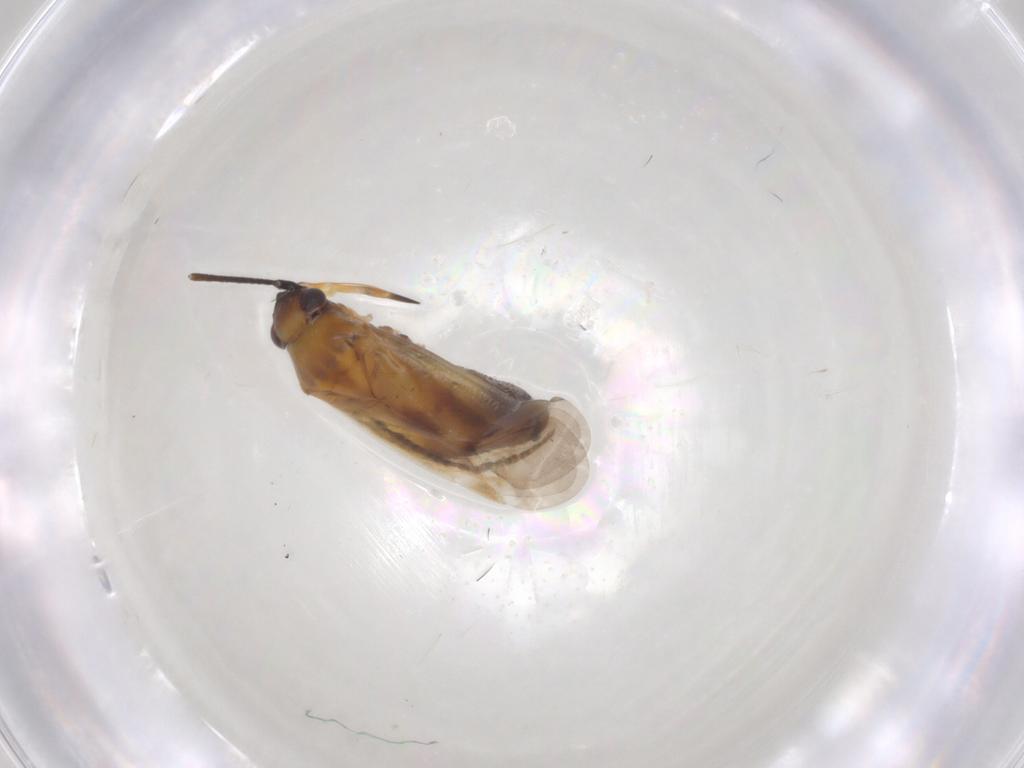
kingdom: Animalia
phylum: Arthropoda
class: Insecta
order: Hemiptera
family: Miridae
